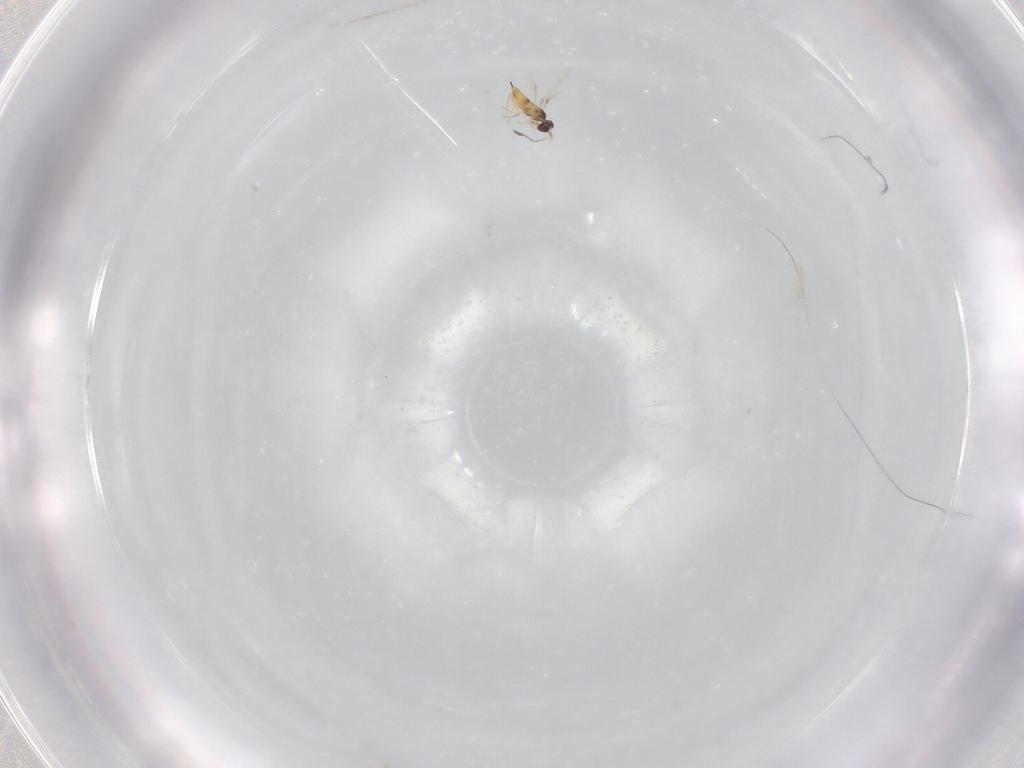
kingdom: Animalia
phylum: Arthropoda
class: Insecta
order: Hymenoptera
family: Mymaridae
